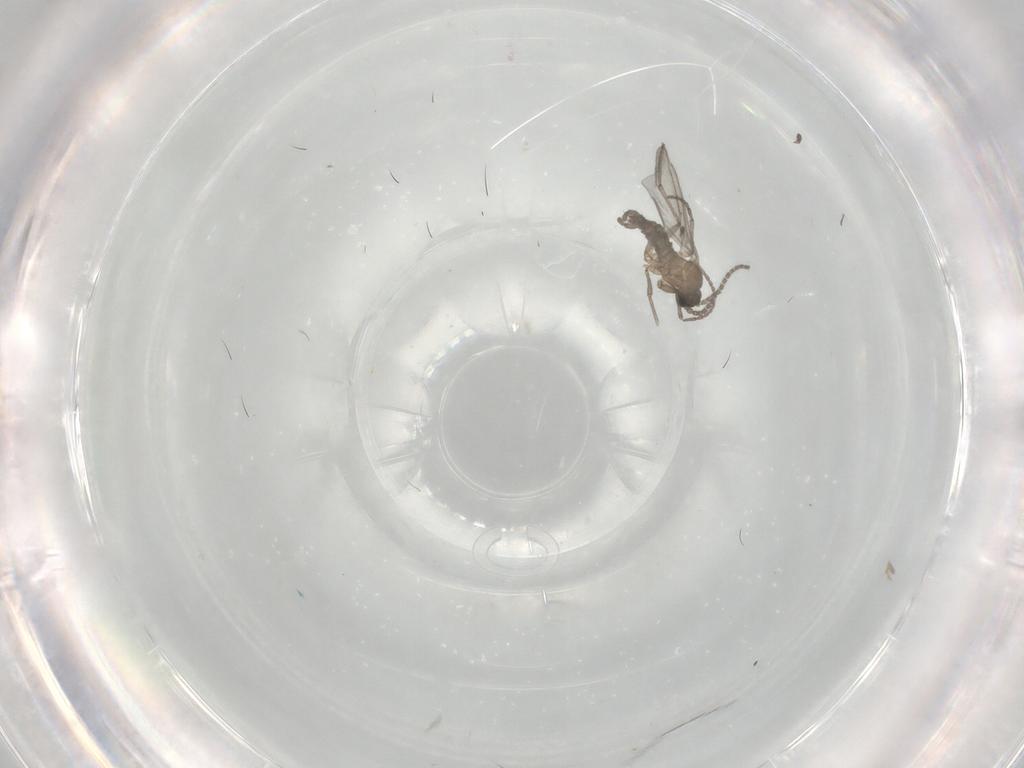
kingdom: Animalia
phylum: Arthropoda
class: Insecta
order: Diptera
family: Sciaridae
